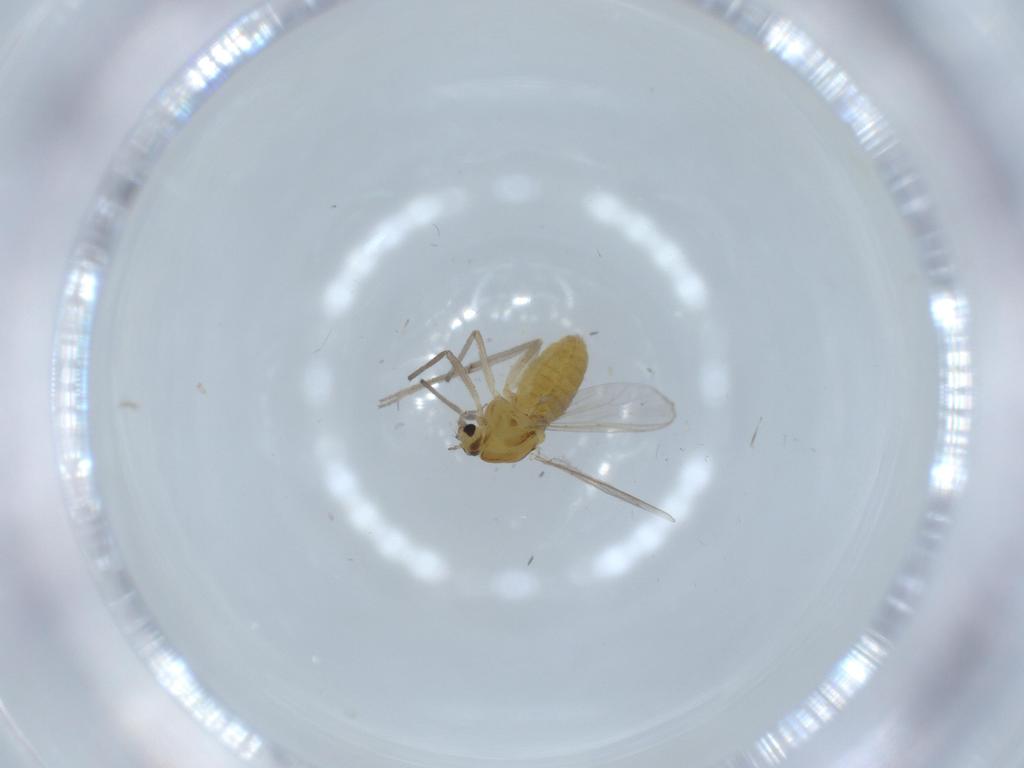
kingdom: Animalia
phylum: Arthropoda
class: Insecta
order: Diptera
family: Chironomidae
